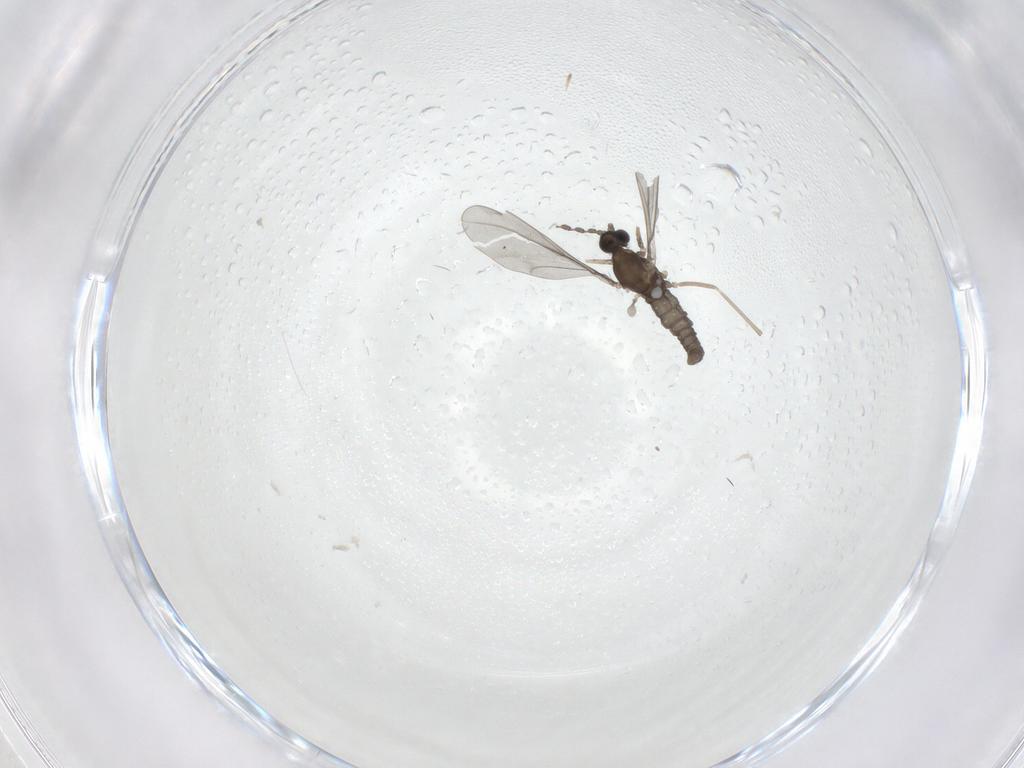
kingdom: Animalia
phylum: Arthropoda
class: Insecta
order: Diptera
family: Cecidomyiidae
